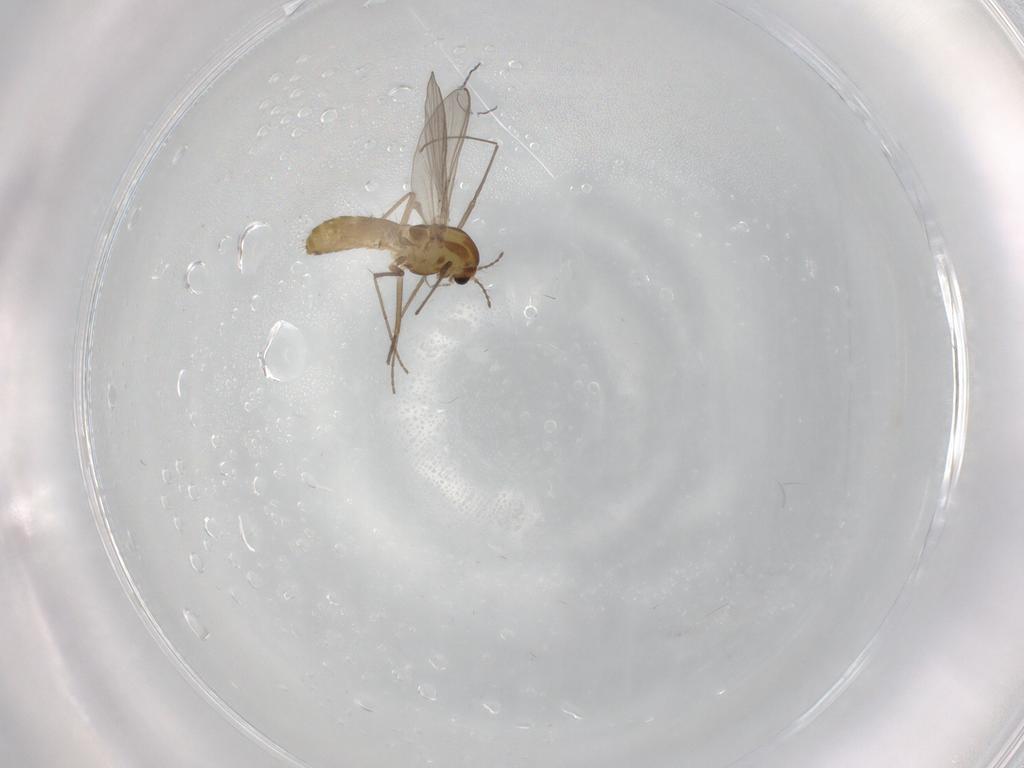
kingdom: Animalia
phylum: Arthropoda
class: Insecta
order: Diptera
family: Chironomidae
